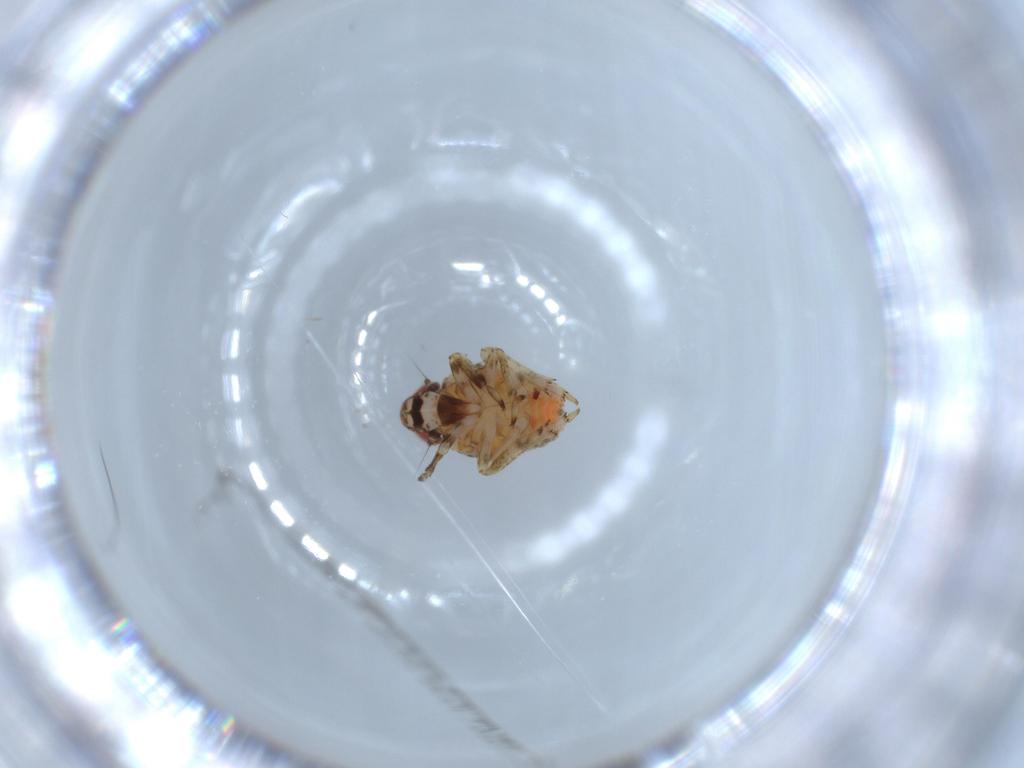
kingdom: Animalia
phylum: Arthropoda
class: Insecta
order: Hemiptera
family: Issidae
